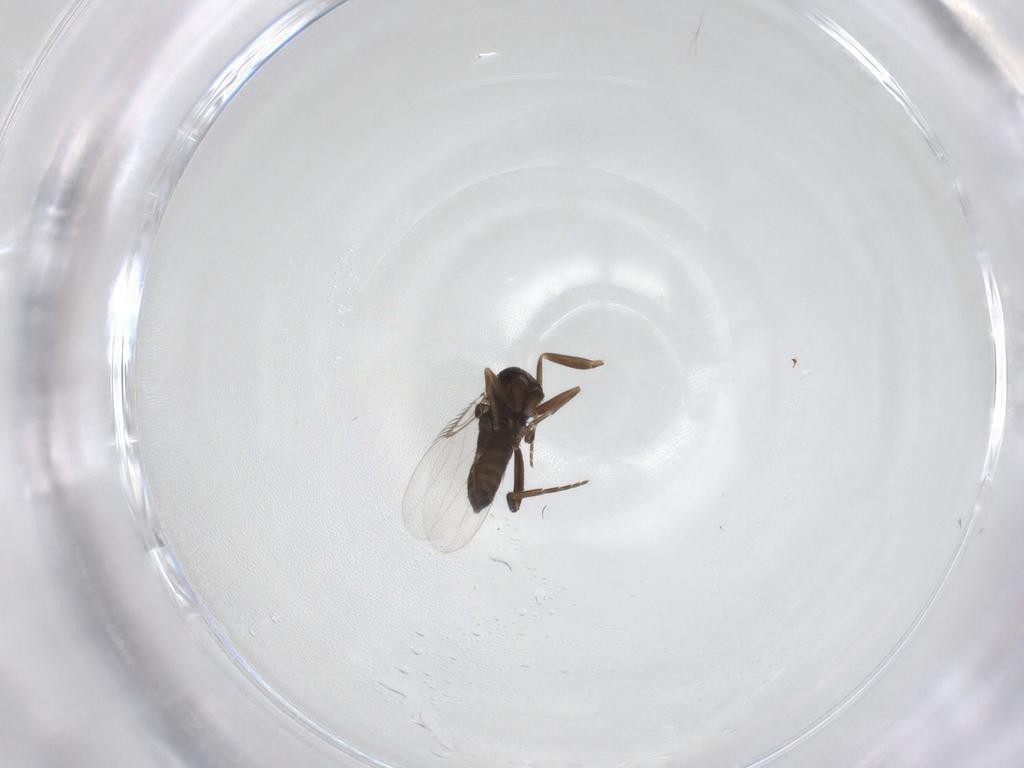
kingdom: Animalia
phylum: Arthropoda
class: Insecta
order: Diptera
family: Phoridae
